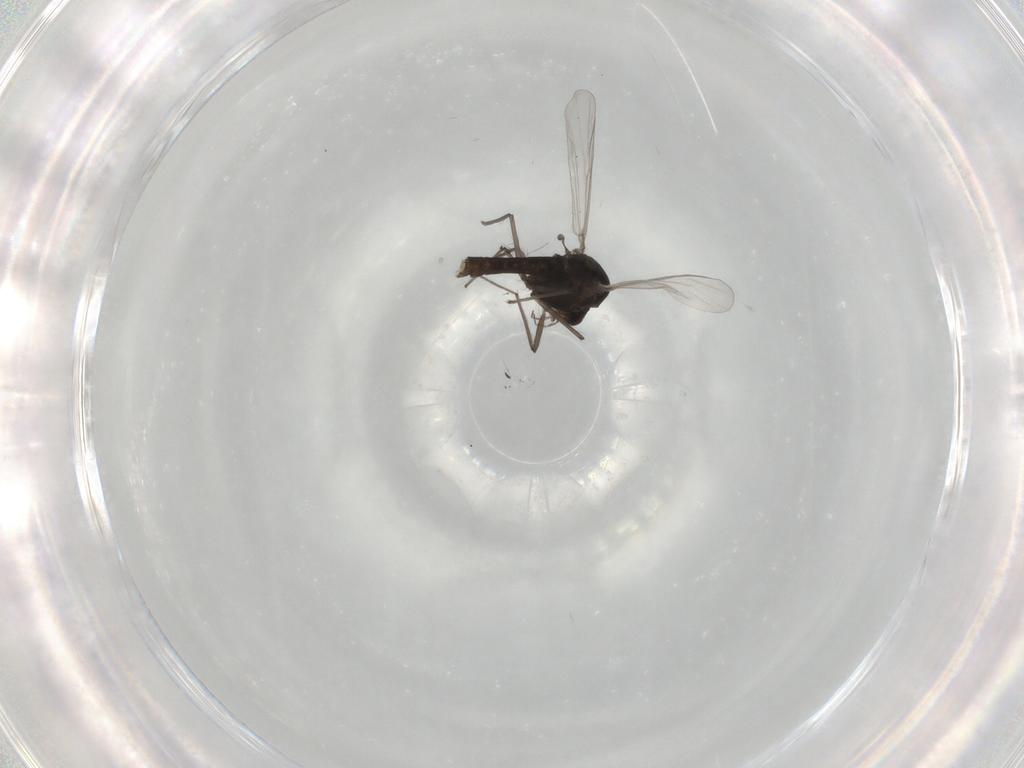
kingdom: Animalia
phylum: Arthropoda
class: Insecta
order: Diptera
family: Chironomidae
